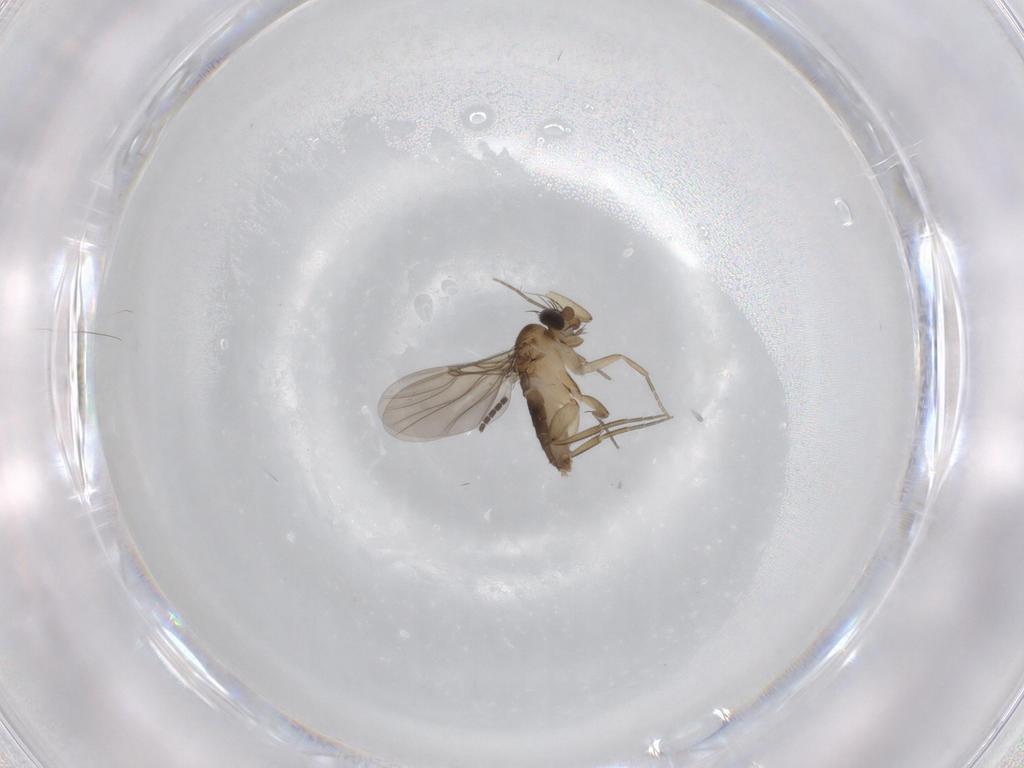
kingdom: Animalia
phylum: Arthropoda
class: Insecta
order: Diptera
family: Phoridae
